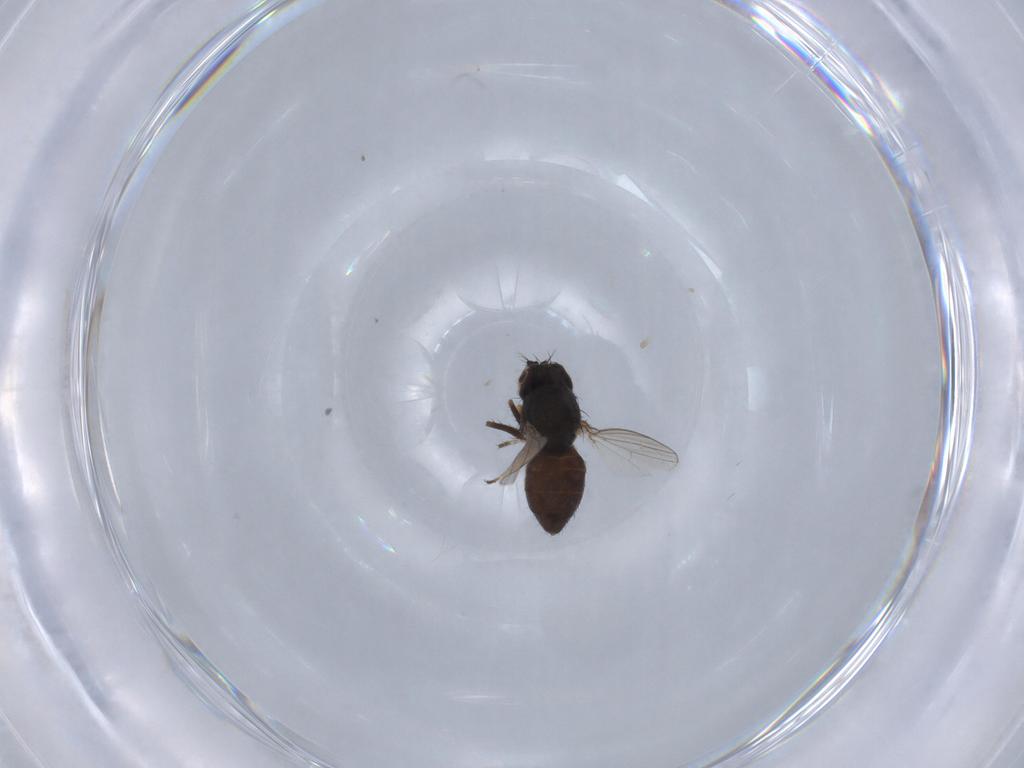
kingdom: Animalia
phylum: Arthropoda
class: Insecta
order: Diptera
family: Ephydridae
